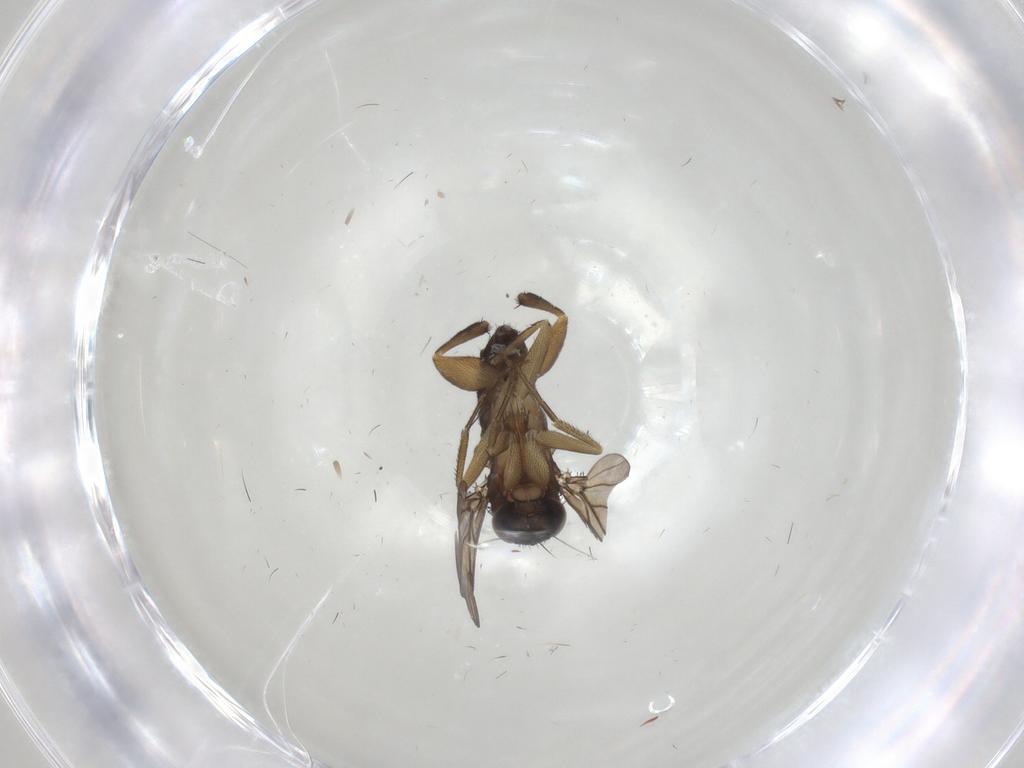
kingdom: Animalia
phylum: Arthropoda
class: Insecta
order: Diptera
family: Phoridae
